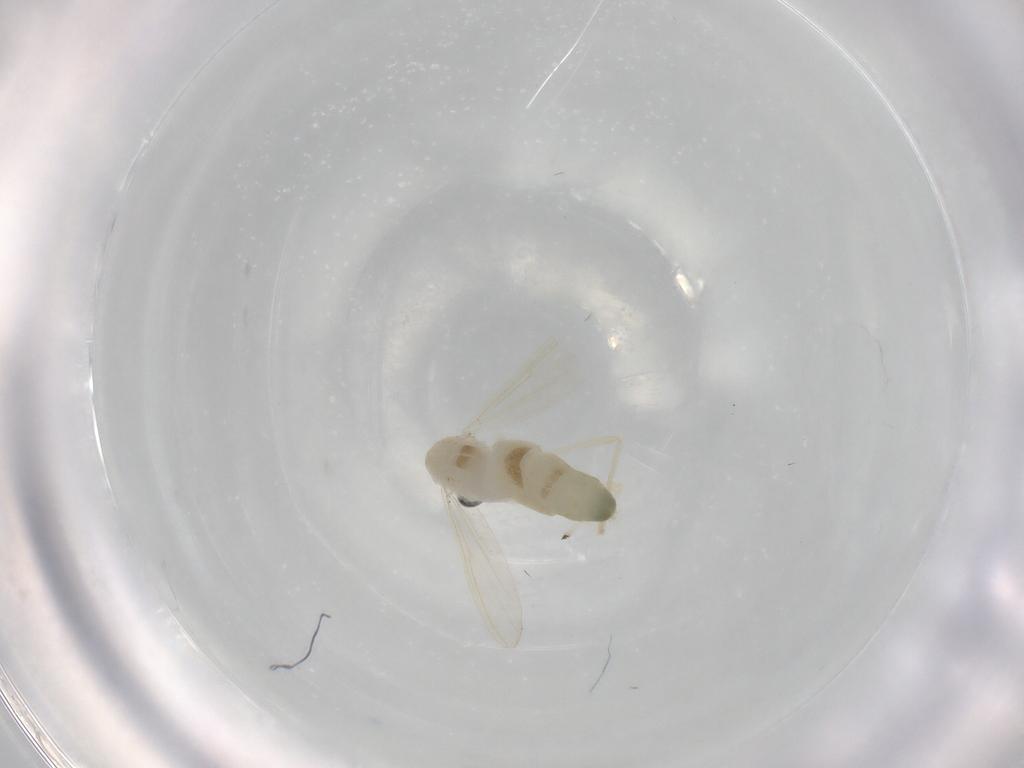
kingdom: Animalia
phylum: Arthropoda
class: Insecta
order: Diptera
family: Chironomidae
